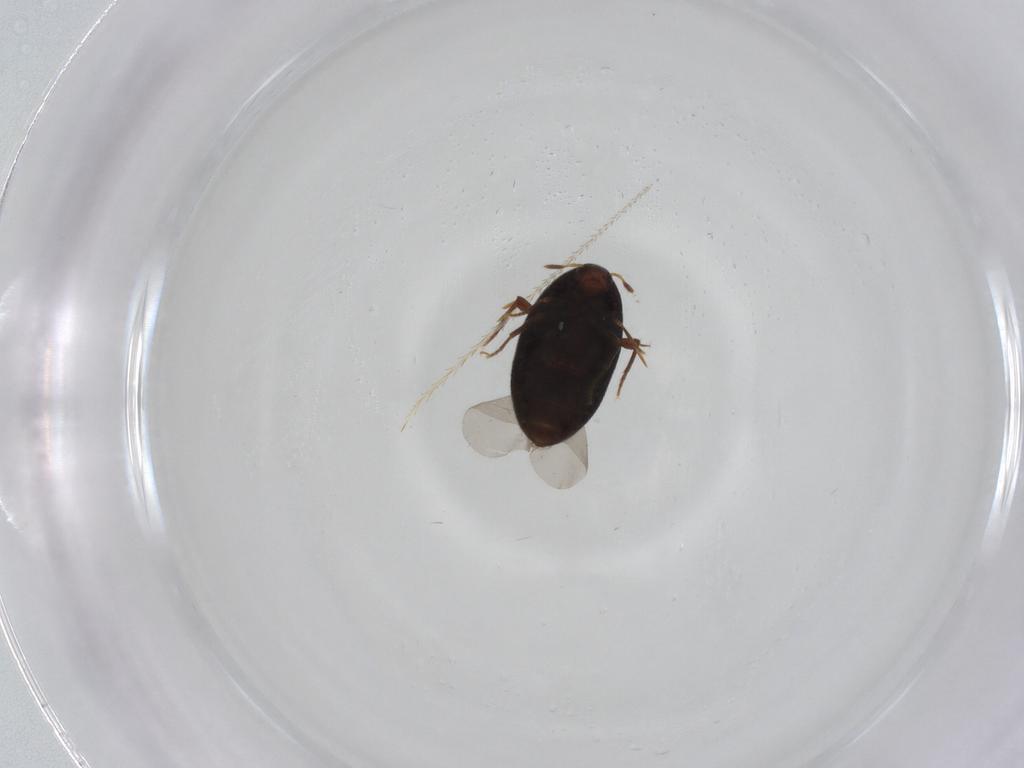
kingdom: Animalia
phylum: Arthropoda
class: Insecta
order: Coleoptera
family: Melandryidae
